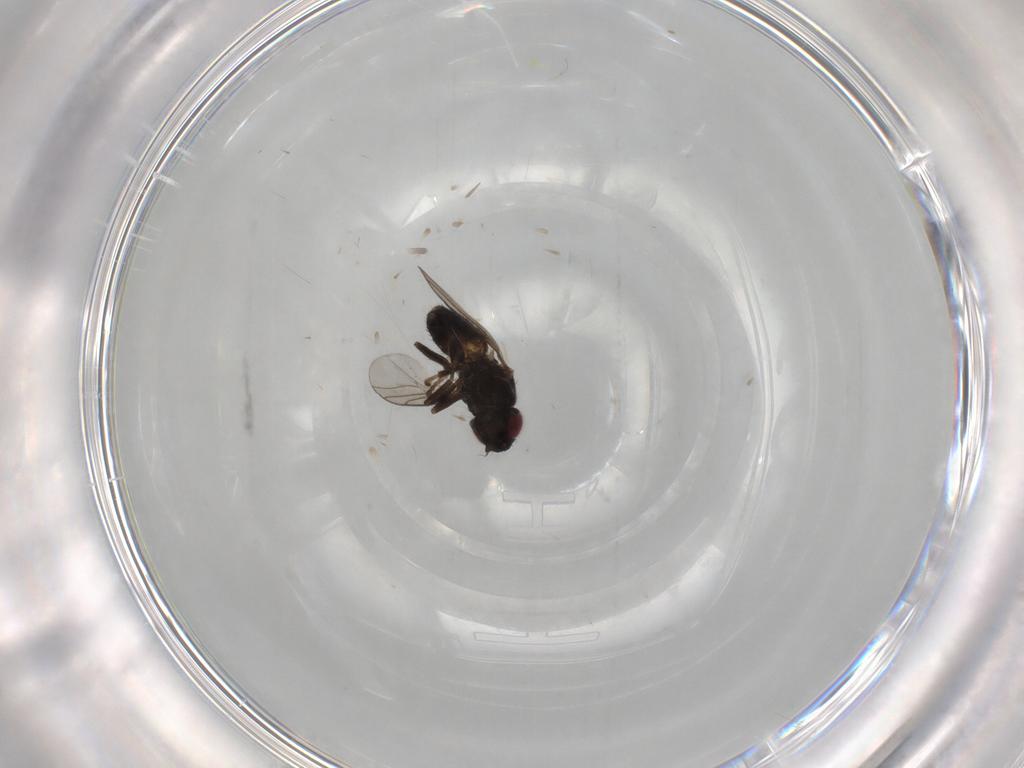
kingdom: Animalia
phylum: Arthropoda
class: Insecta
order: Diptera
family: Chloropidae
